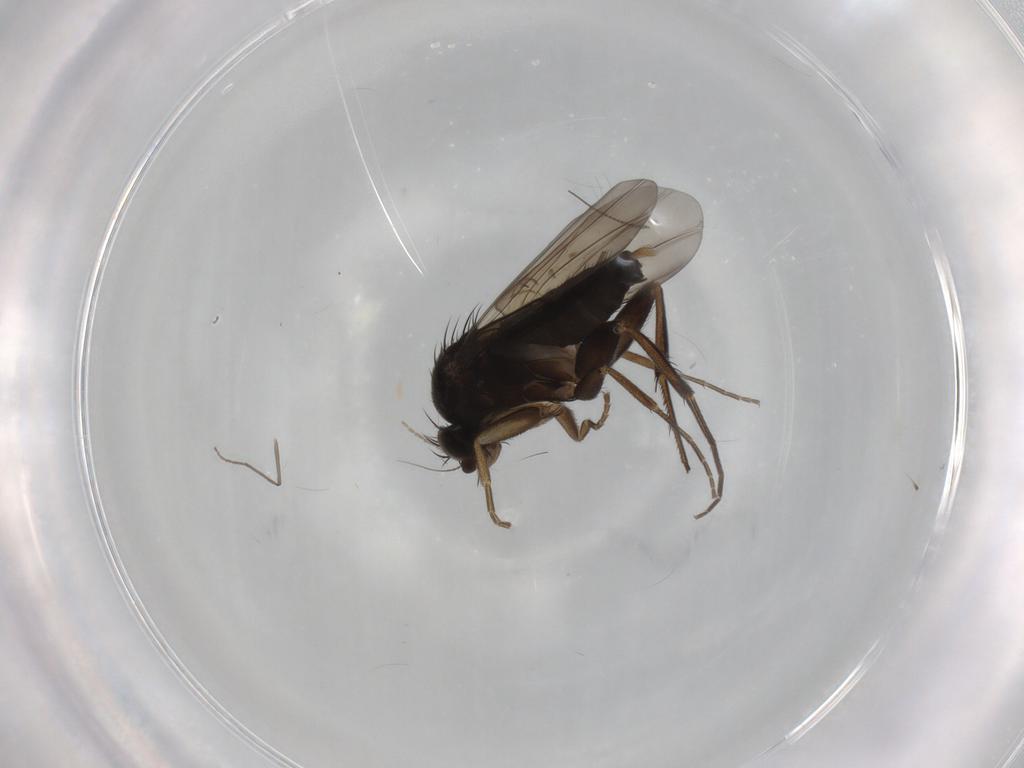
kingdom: Animalia
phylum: Arthropoda
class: Insecta
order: Diptera
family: Phoridae
